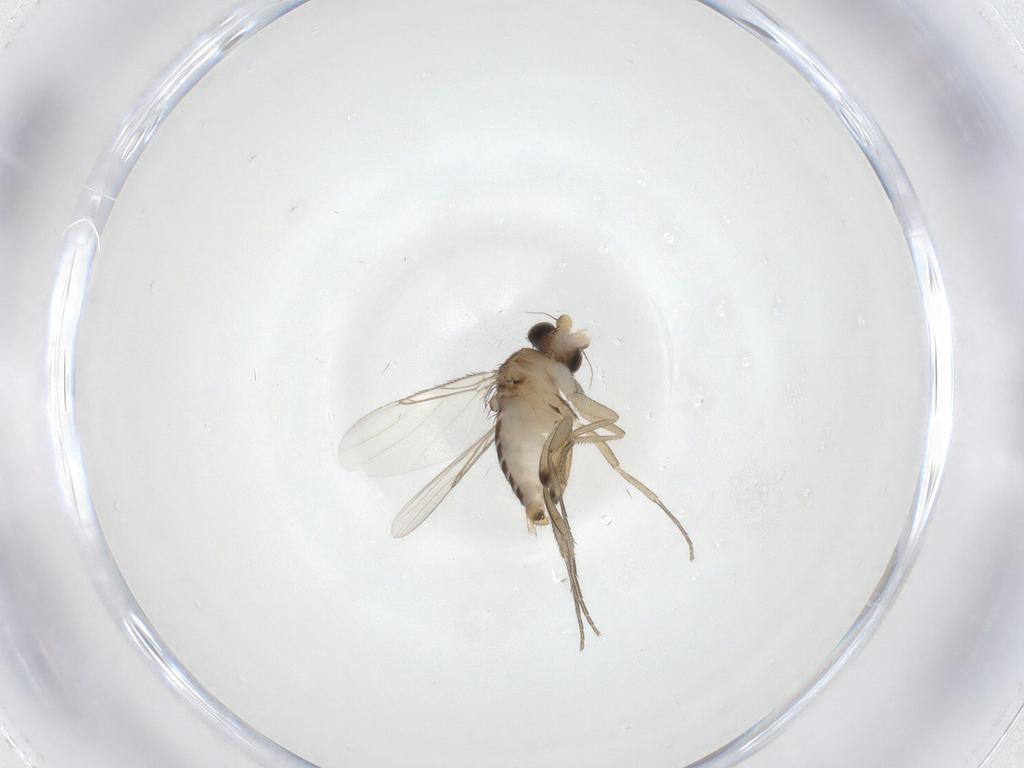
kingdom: Animalia
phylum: Arthropoda
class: Insecta
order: Diptera
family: Phoridae
